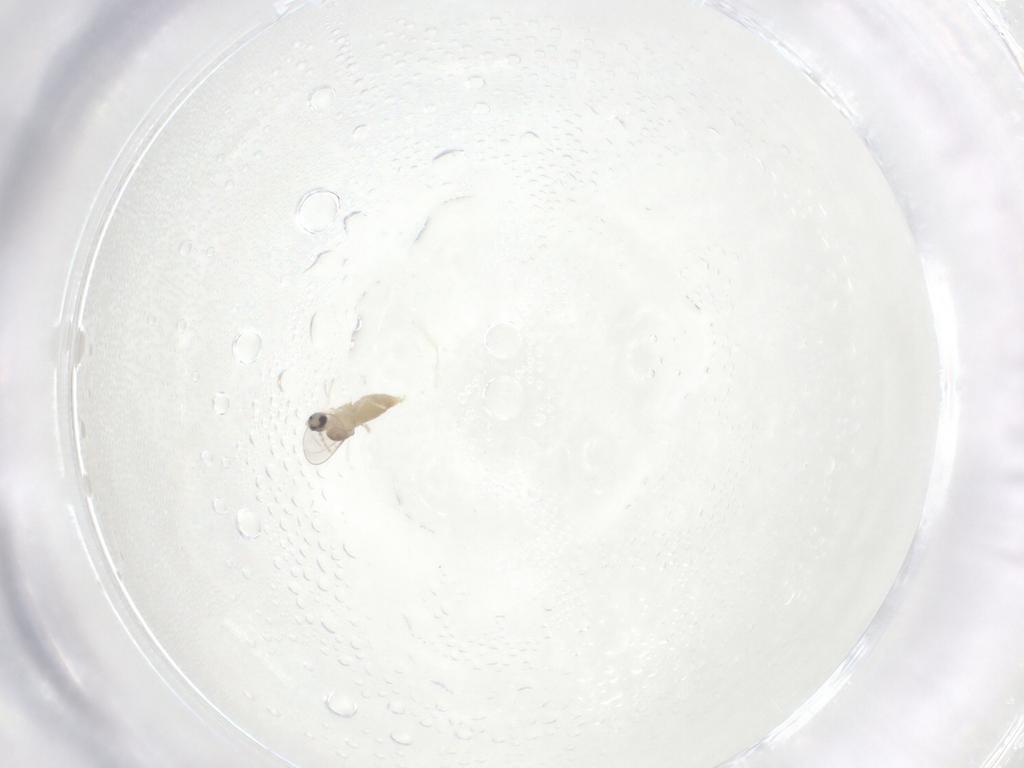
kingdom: Animalia
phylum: Arthropoda
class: Insecta
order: Diptera
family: Cecidomyiidae
